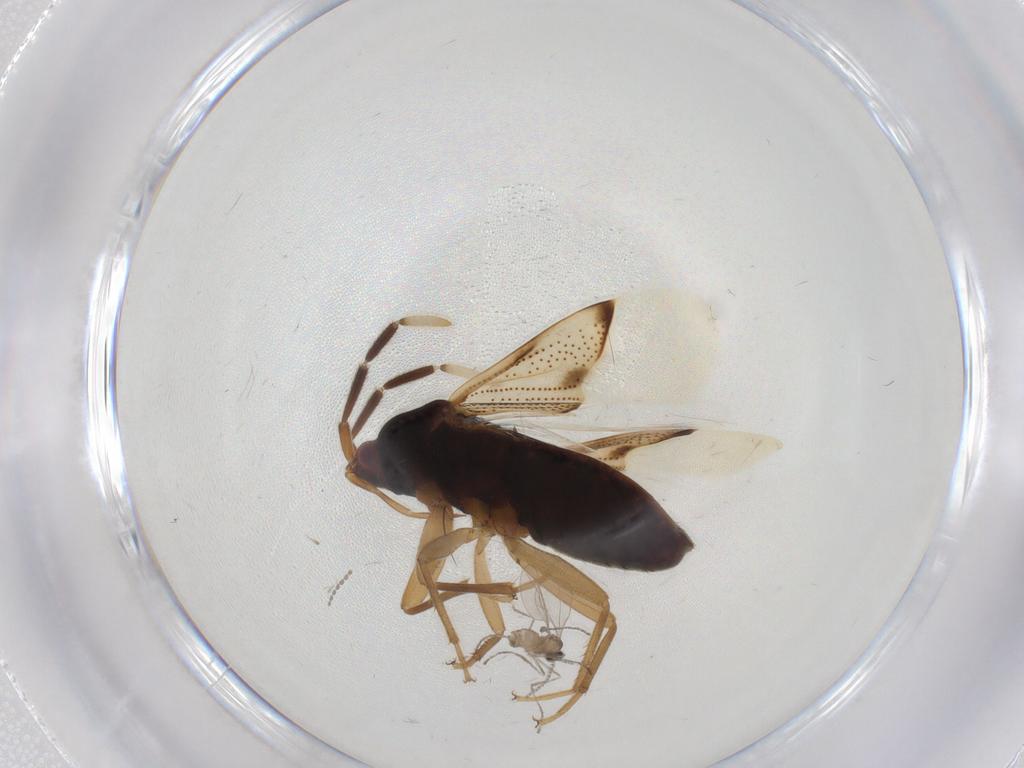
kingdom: Animalia
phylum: Arthropoda
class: Insecta
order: Hemiptera
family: Rhyparochromidae
